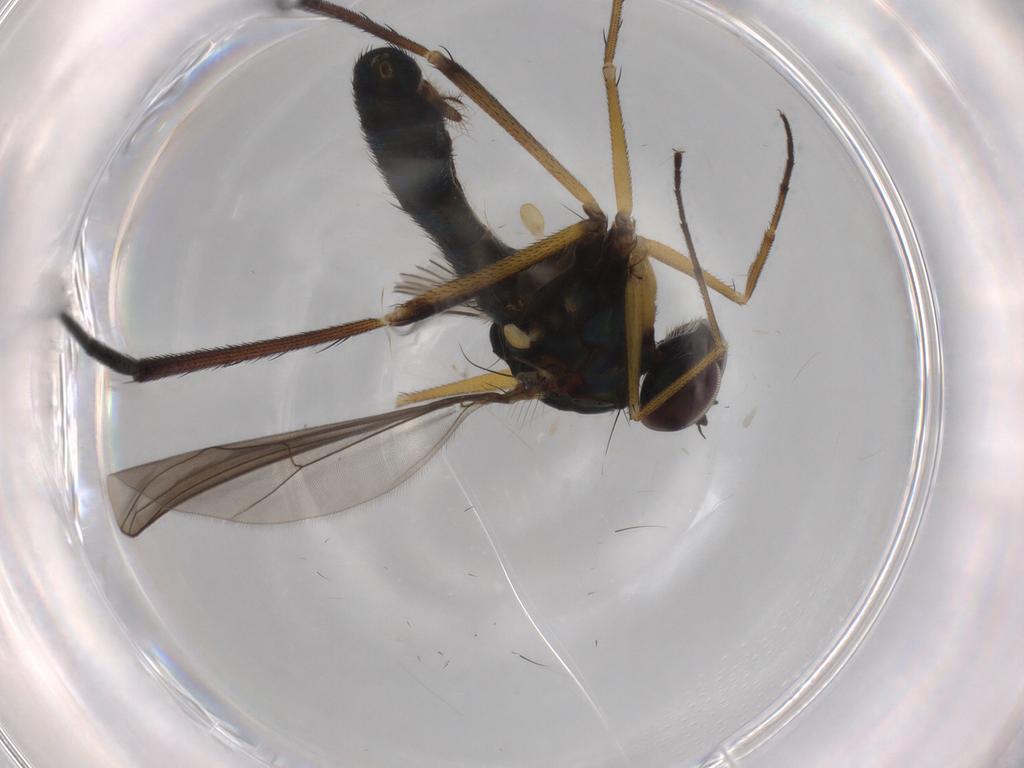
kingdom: Animalia
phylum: Arthropoda
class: Insecta
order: Diptera
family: Dolichopodidae
